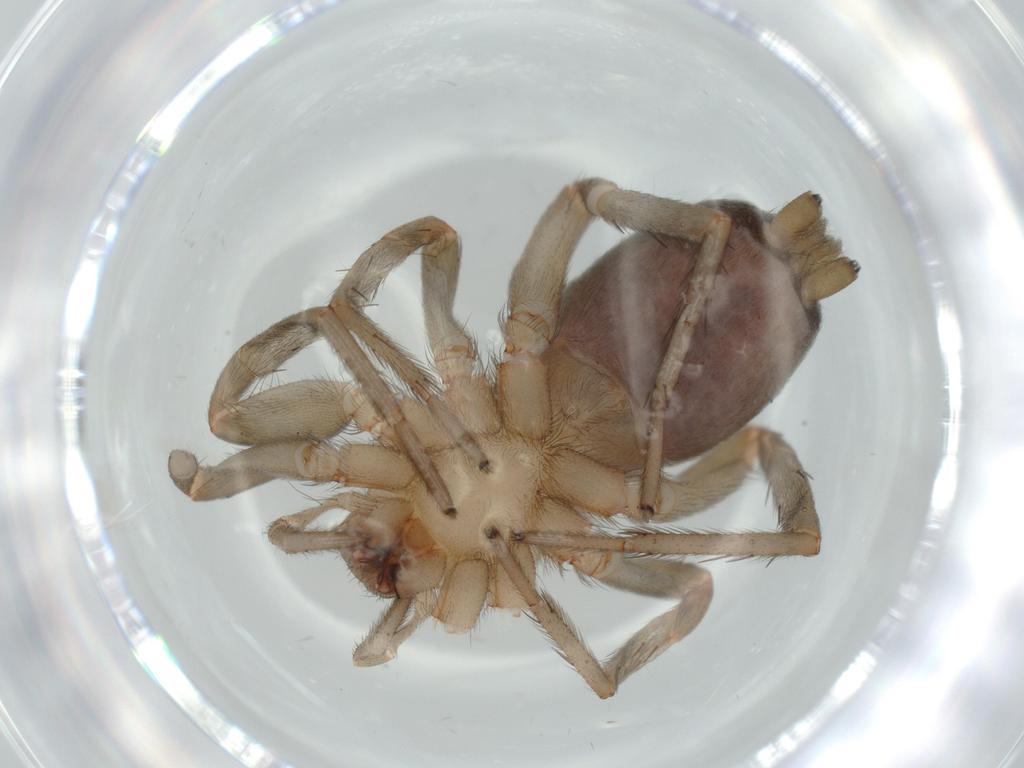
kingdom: Animalia
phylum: Arthropoda
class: Arachnida
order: Araneae
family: Gnaphosidae
